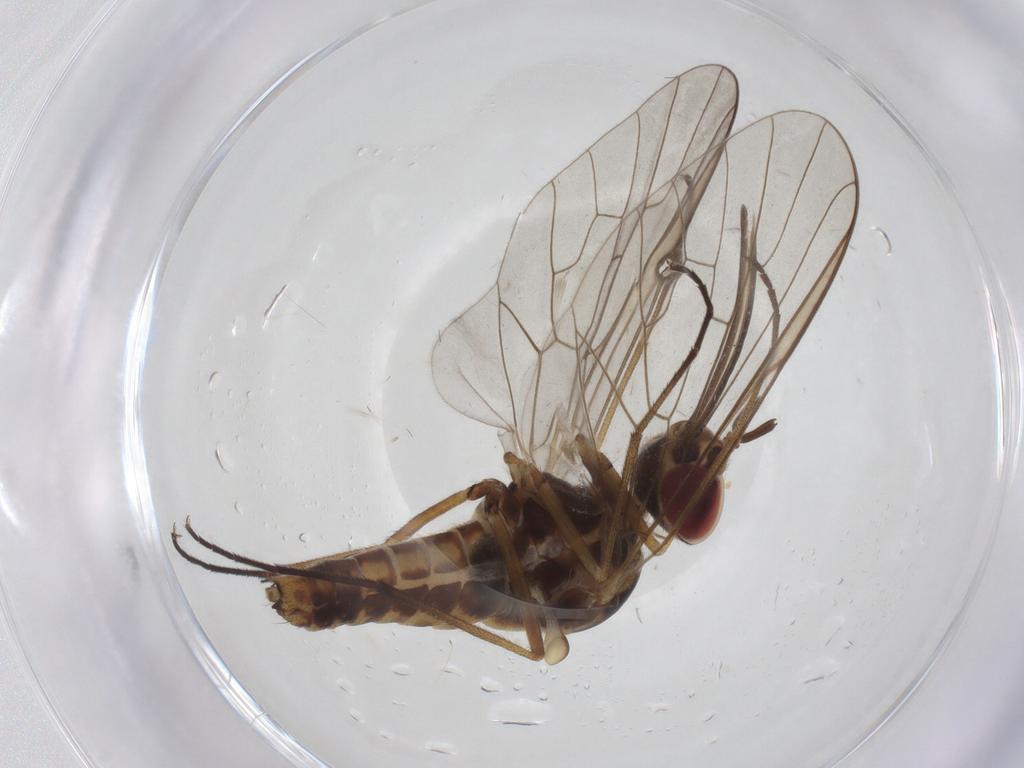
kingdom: Animalia
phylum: Arthropoda
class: Insecta
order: Diptera
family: Bombyliidae
